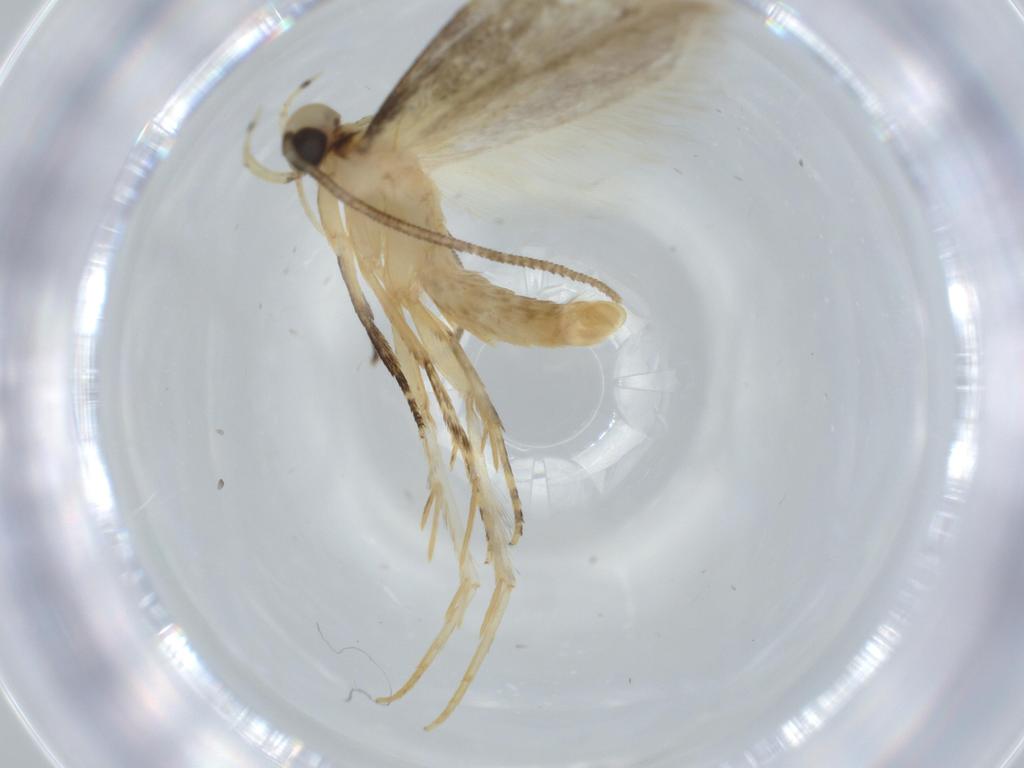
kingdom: Animalia
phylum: Arthropoda
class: Insecta
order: Lepidoptera
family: Autostichidae
